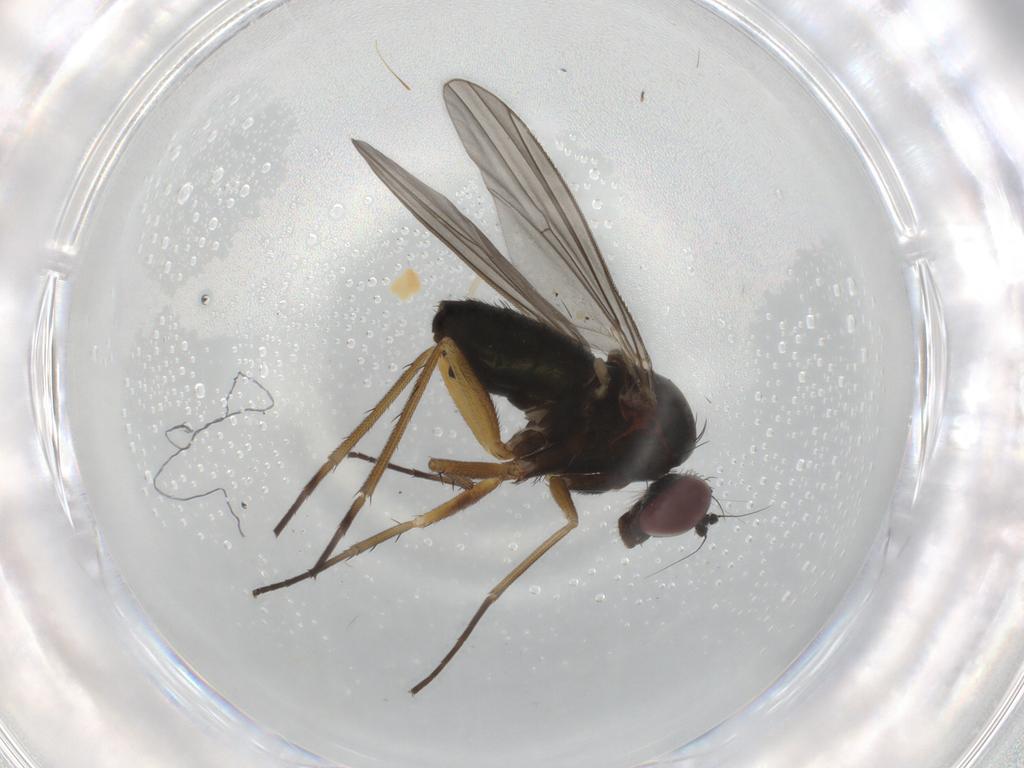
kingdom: Animalia
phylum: Arthropoda
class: Insecta
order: Diptera
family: Dolichopodidae
